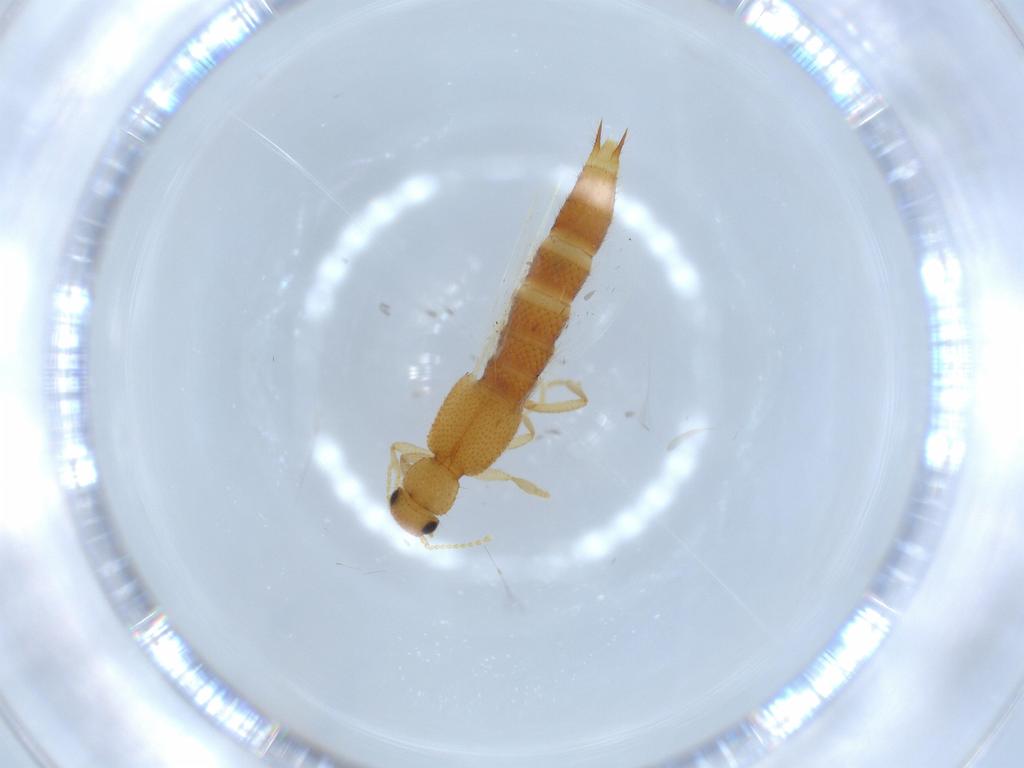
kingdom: Animalia
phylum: Arthropoda
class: Insecta
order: Coleoptera
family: Staphylinidae
